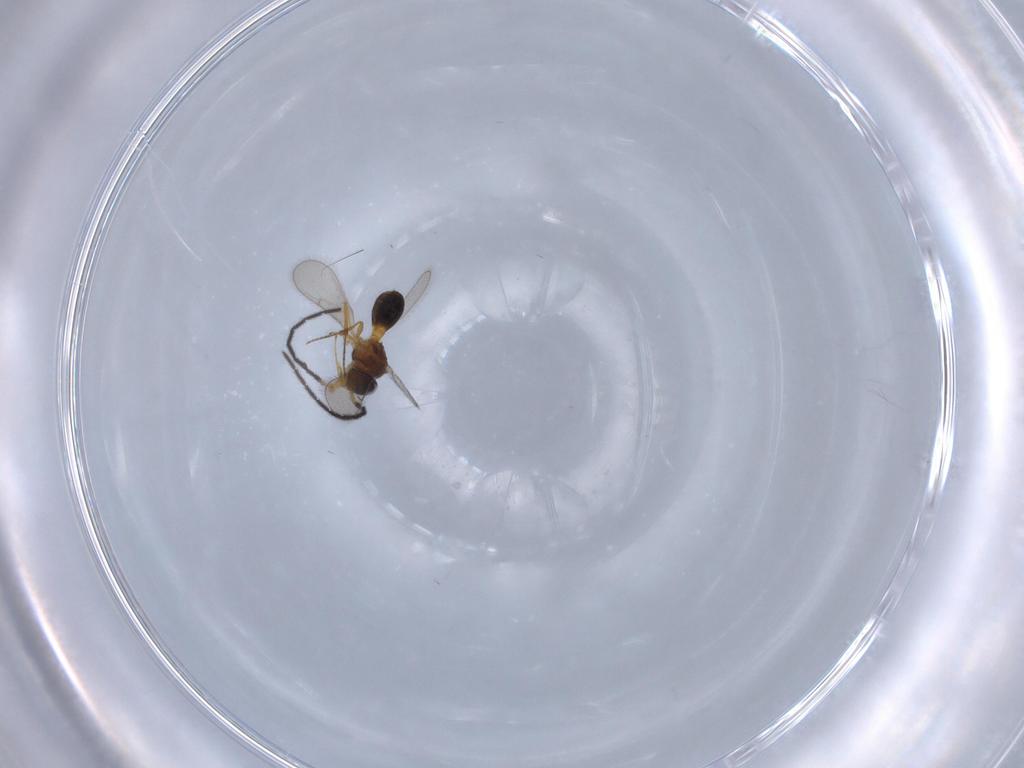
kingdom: Animalia
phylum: Arthropoda
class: Insecta
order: Hymenoptera
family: Scelionidae
